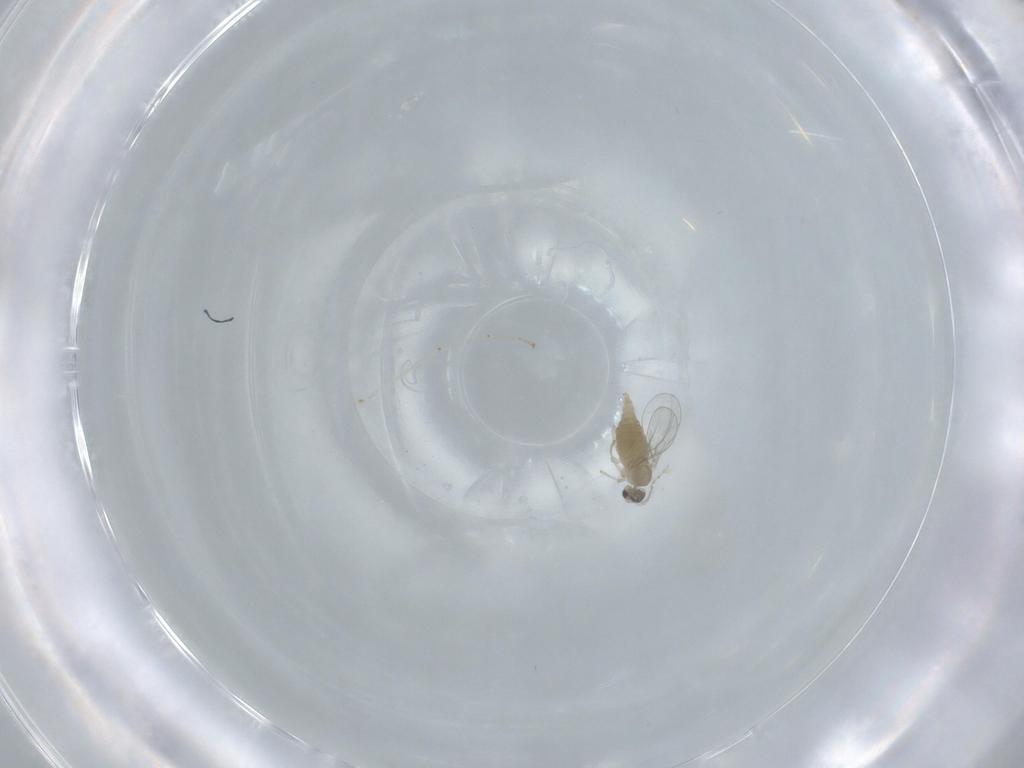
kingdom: Animalia
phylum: Arthropoda
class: Insecta
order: Diptera
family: Cecidomyiidae
